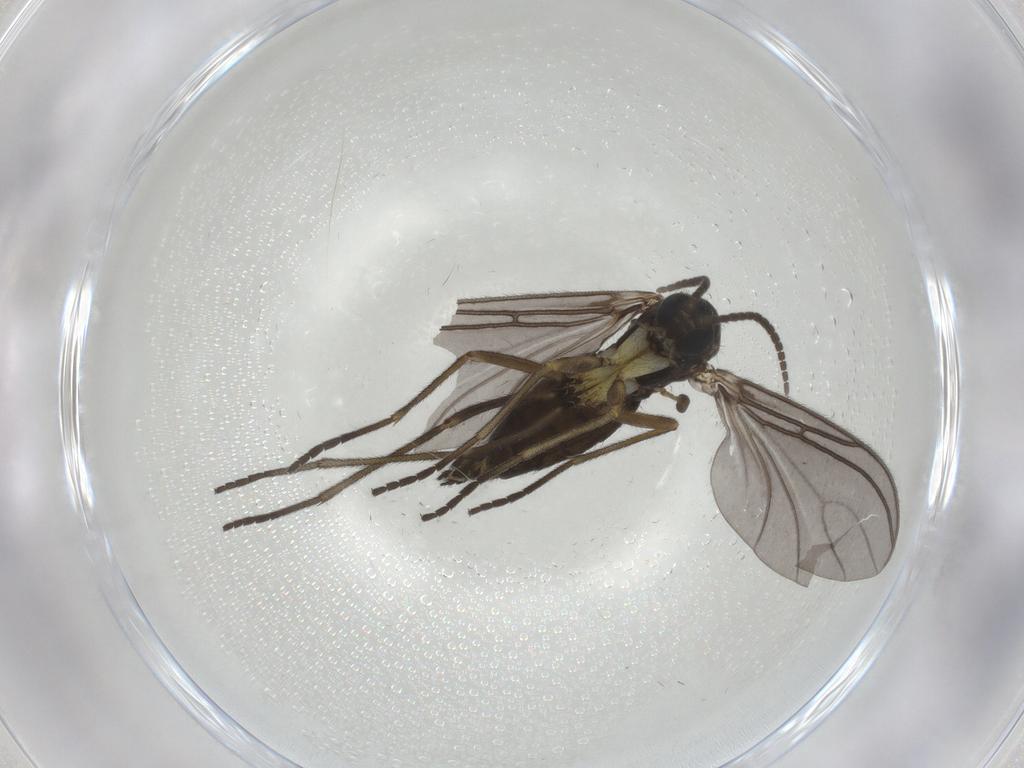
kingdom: Animalia
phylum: Arthropoda
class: Insecta
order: Diptera
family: Sciaridae
